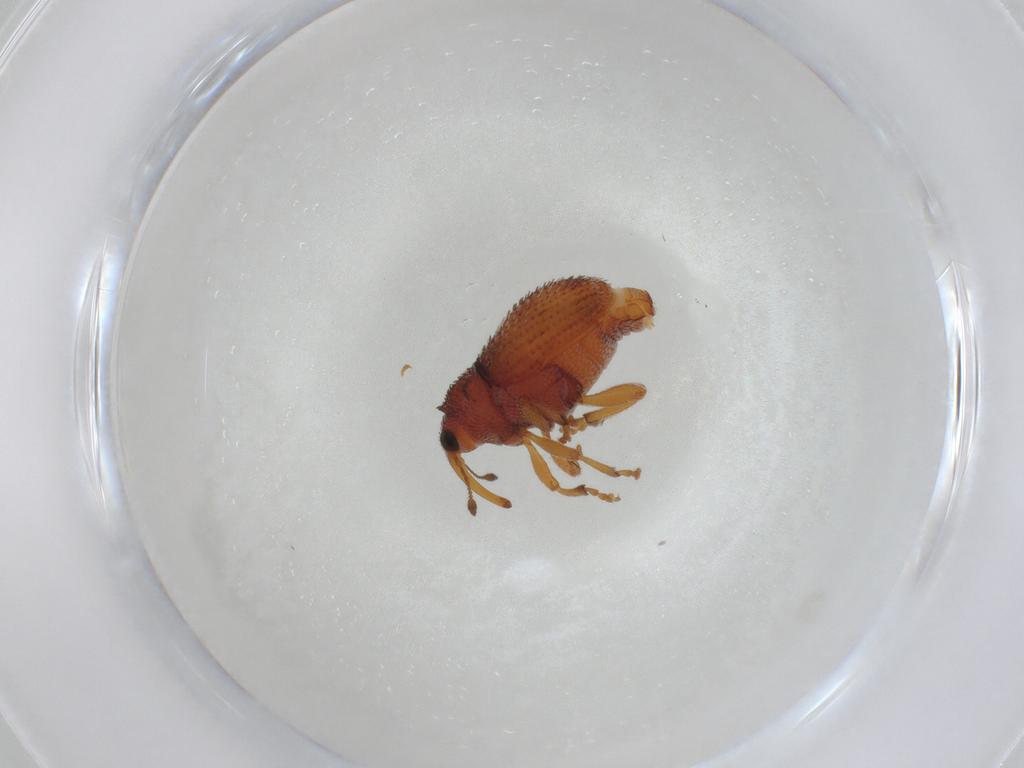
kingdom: Animalia
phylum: Arthropoda
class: Insecta
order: Coleoptera
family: Curculionidae
